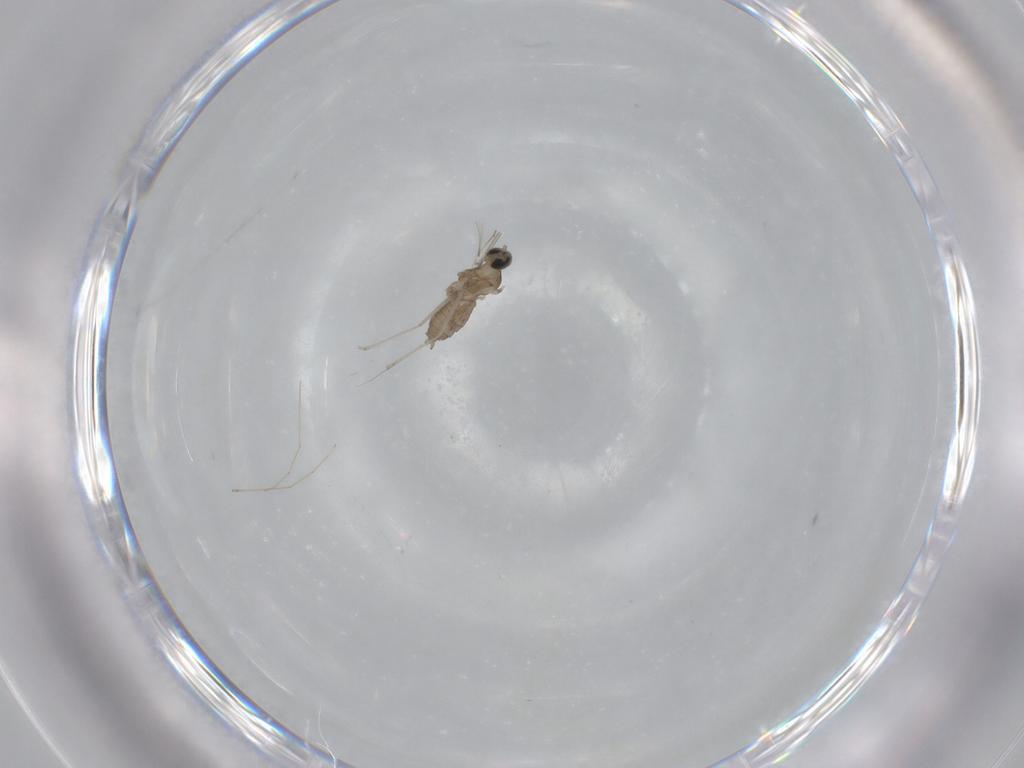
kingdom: Animalia
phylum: Arthropoda
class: Insecta
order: Diptera
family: Cecidomyiidae
